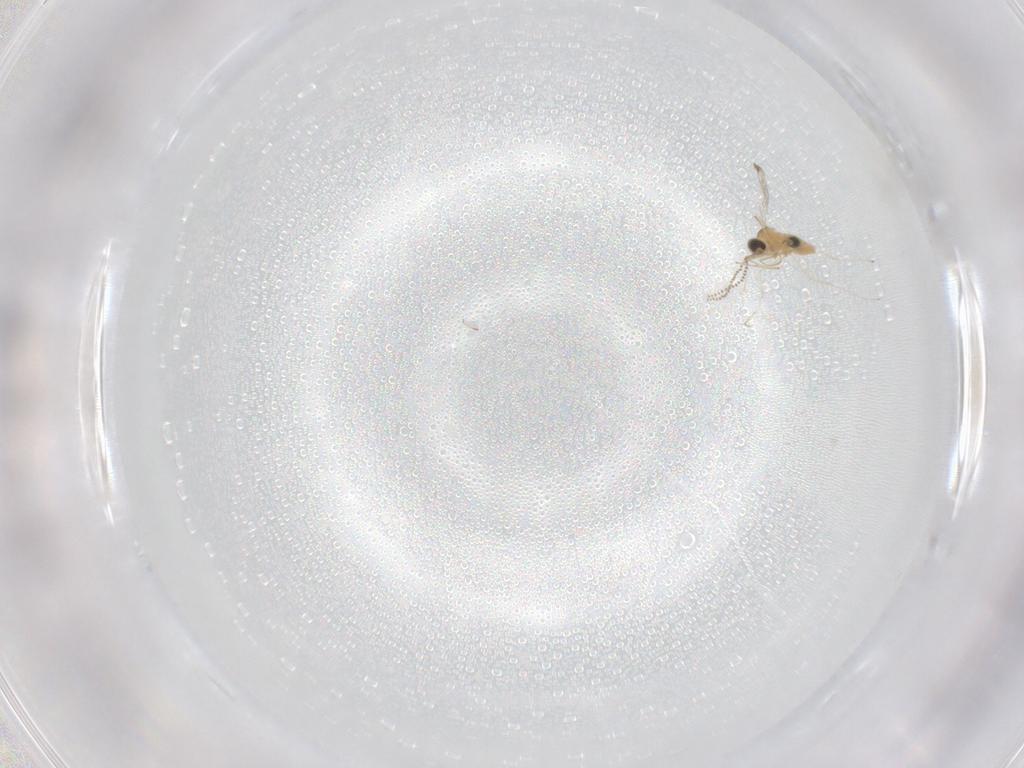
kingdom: Animalia
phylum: Arthropoda
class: Insecta
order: Diptera
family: Cecidomyiidae
